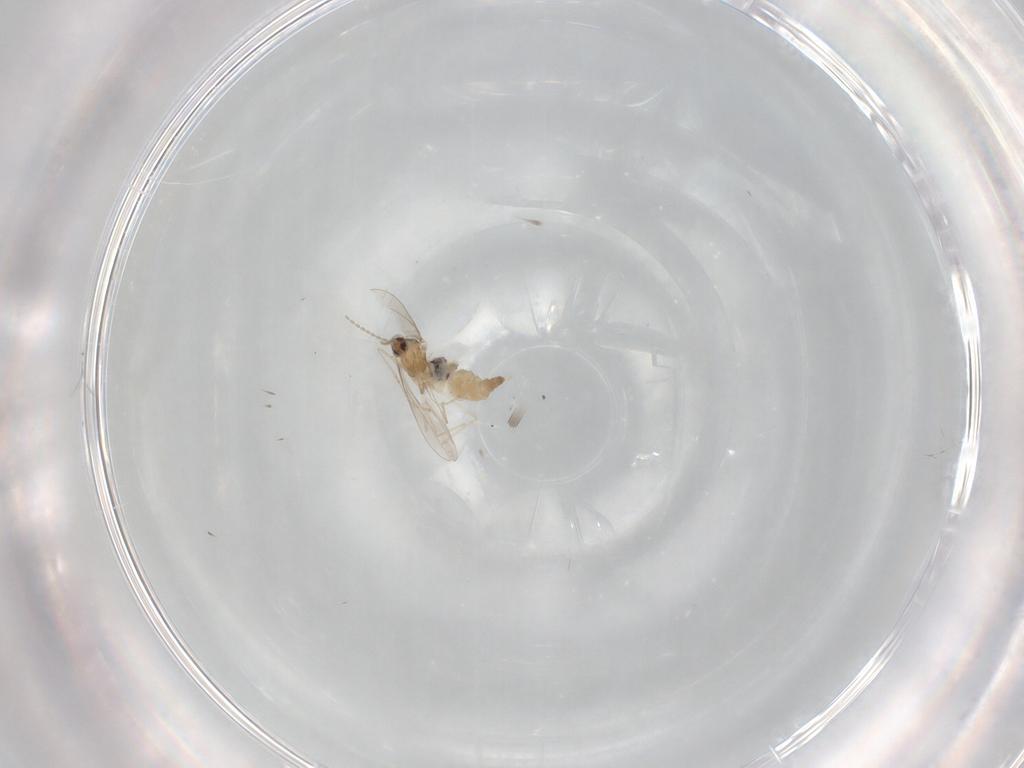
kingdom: Animalia
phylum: Arthropoda
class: Insecta
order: Diptera
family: Cecidomyiidae
